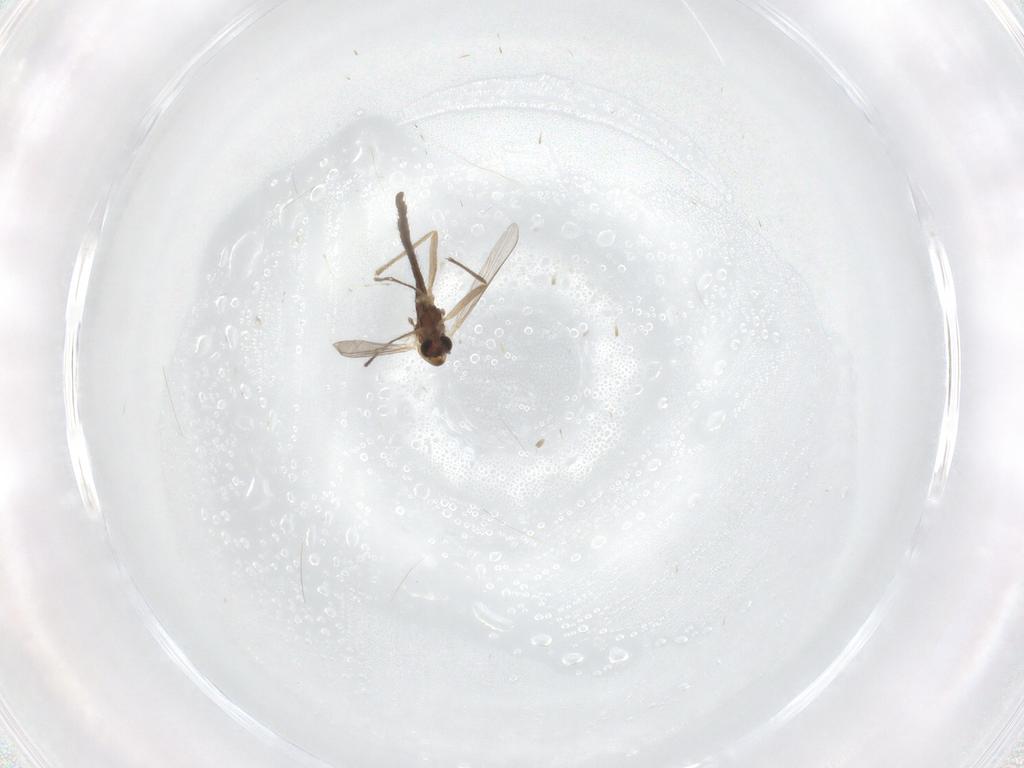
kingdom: Animalia
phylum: Arthropoda
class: Insecta
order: Diptera
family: Chironomidae
